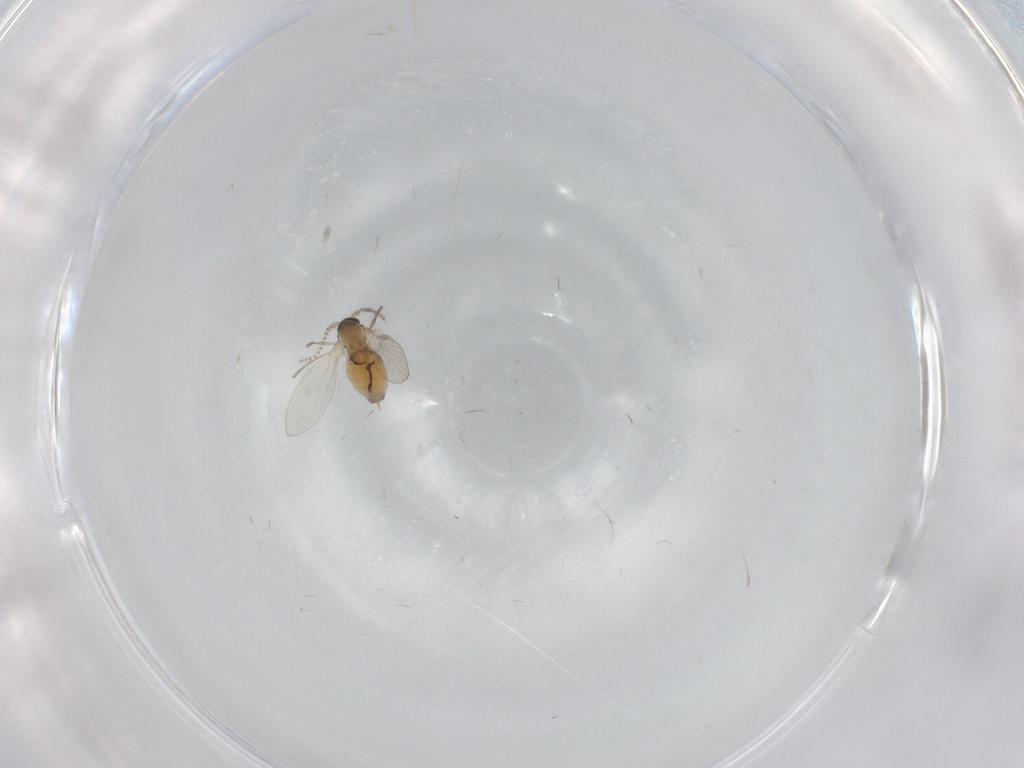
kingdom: Animalia
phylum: Arthropoda
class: Insecta
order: Diptera
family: Psychodidae
